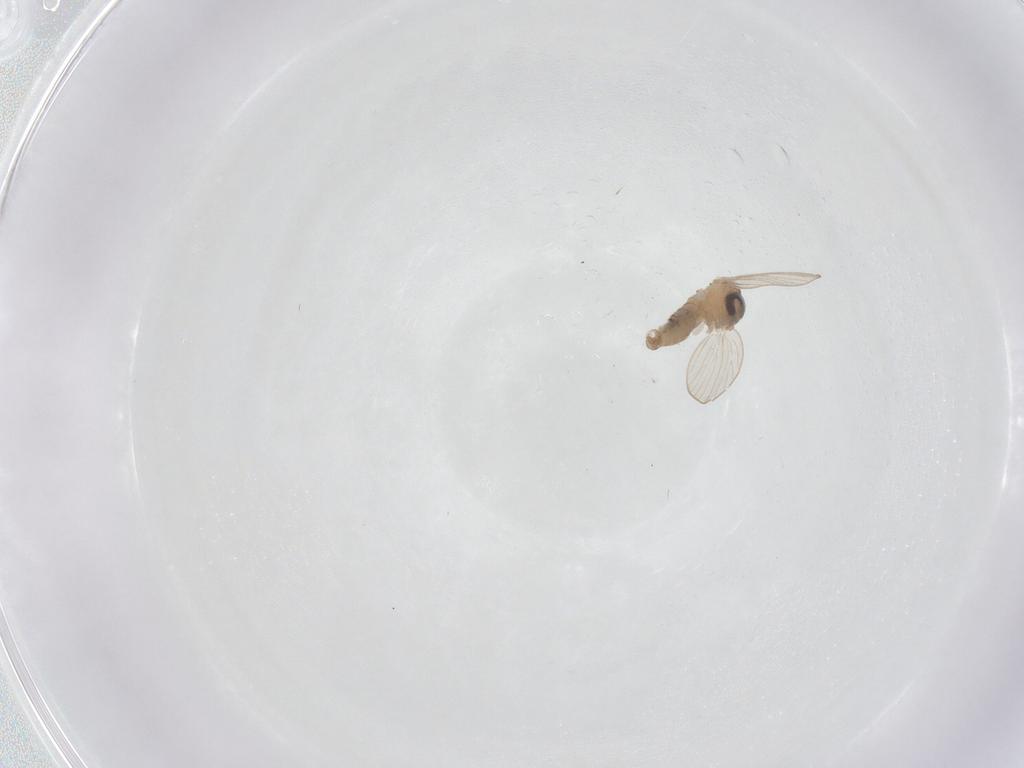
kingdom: Animalia
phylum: Arthropoda
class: Insecta
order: Diptera
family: Psychodidae
